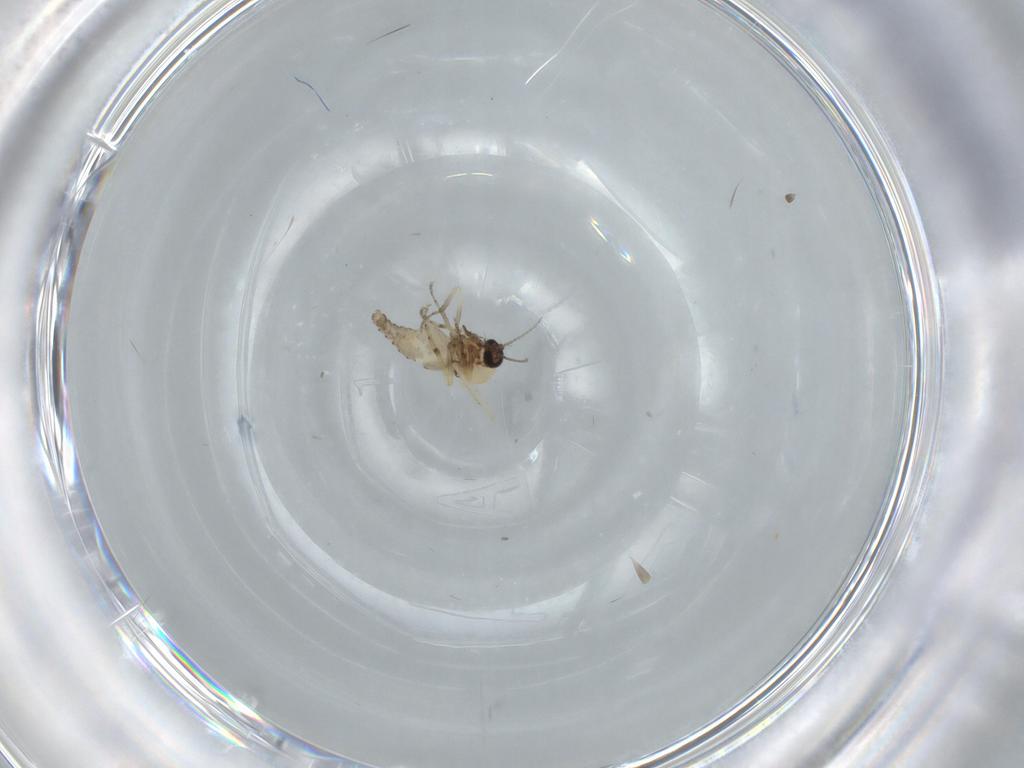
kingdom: Animalia
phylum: Arthropoda
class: Insecta
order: Diptera
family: Ceratopogonidae
